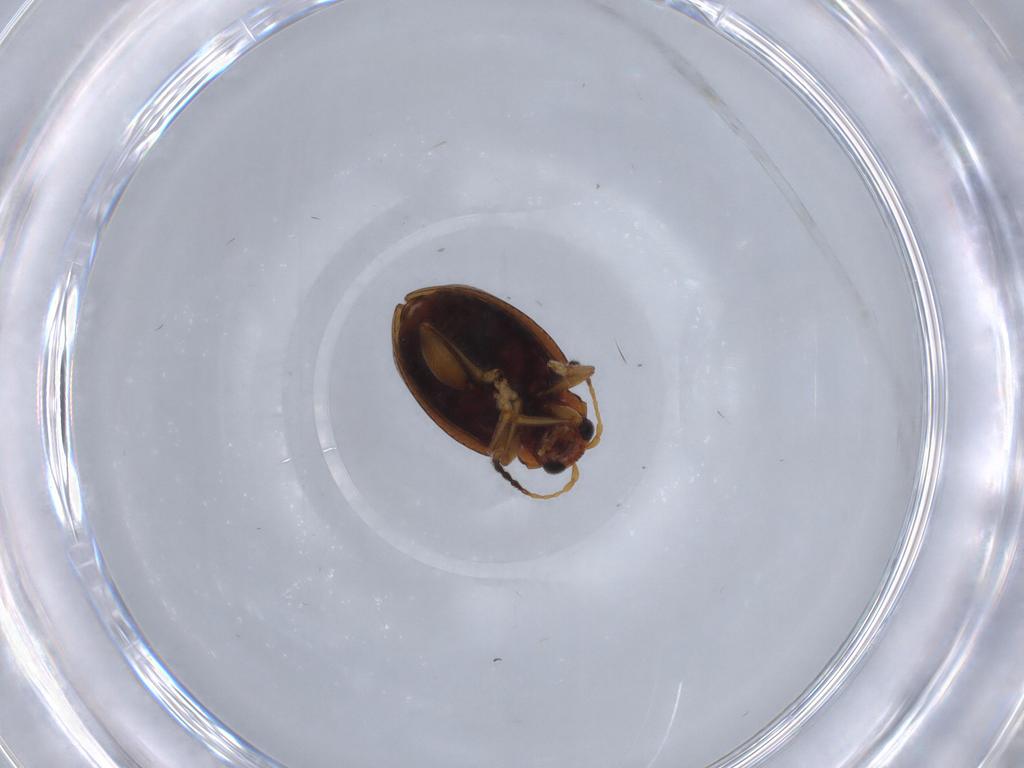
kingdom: Animalia
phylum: Arthropoda
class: Insecta
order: Coleoptera
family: Chrysomelidae
